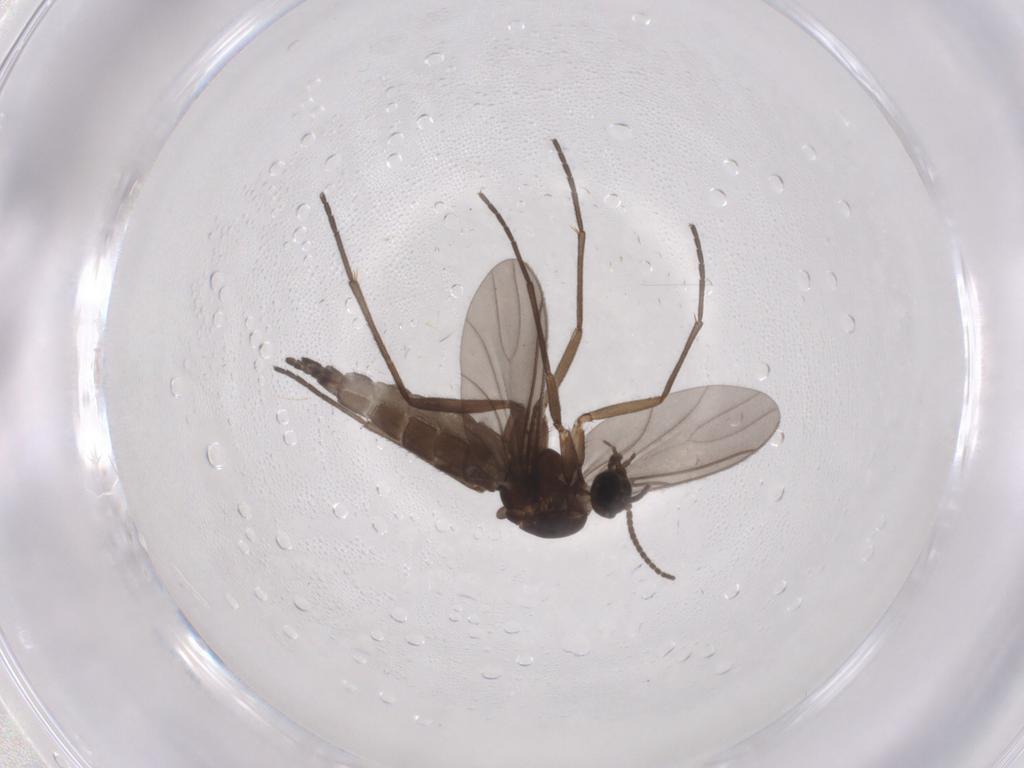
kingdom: Animalia
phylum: Arthropoda
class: Insecta
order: Diptera
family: Sciaridae
